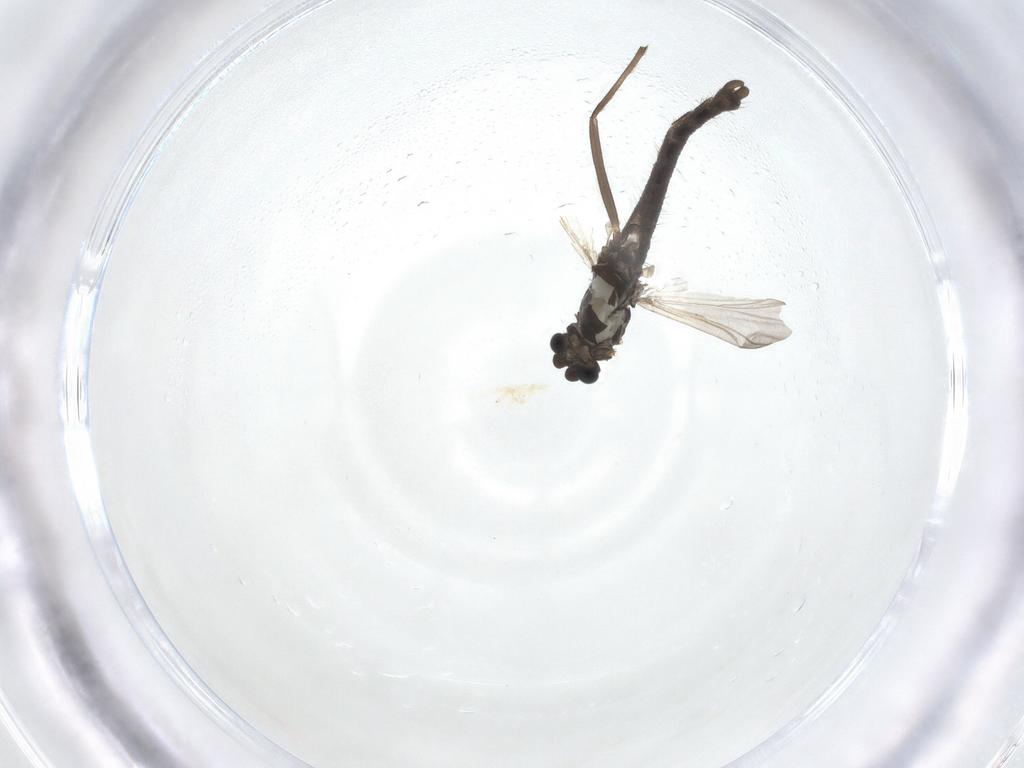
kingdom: Animalia
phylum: Arthropoda
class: Insecta
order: Diptera
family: Chironomidae
